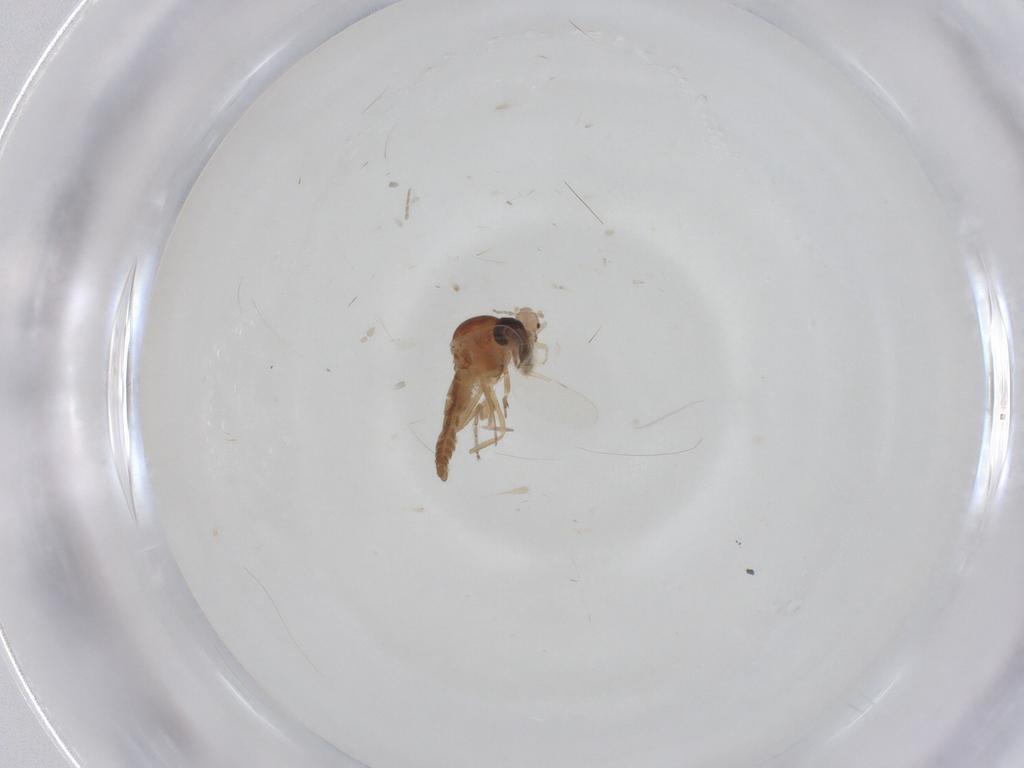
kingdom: Animalia
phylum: Arthropoda
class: Insecta
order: Psocodea
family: Lepidopsocidae
